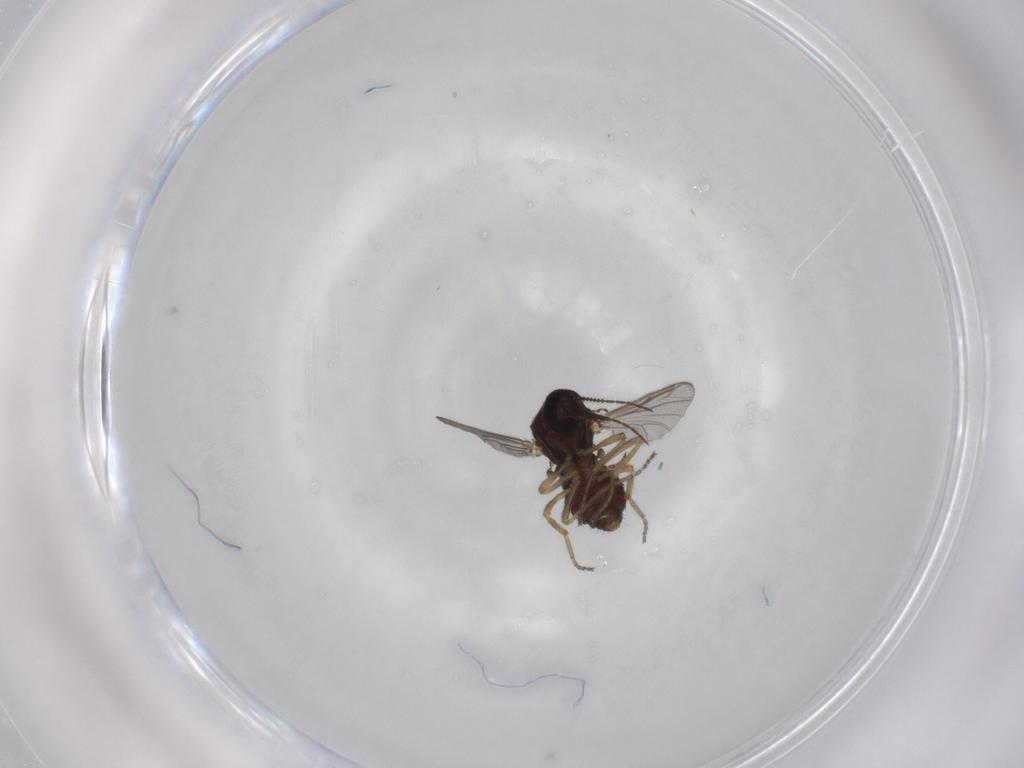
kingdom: Animalia
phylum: Arthropoda
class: Insecta
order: Diptera
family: Ceratopogonidae
